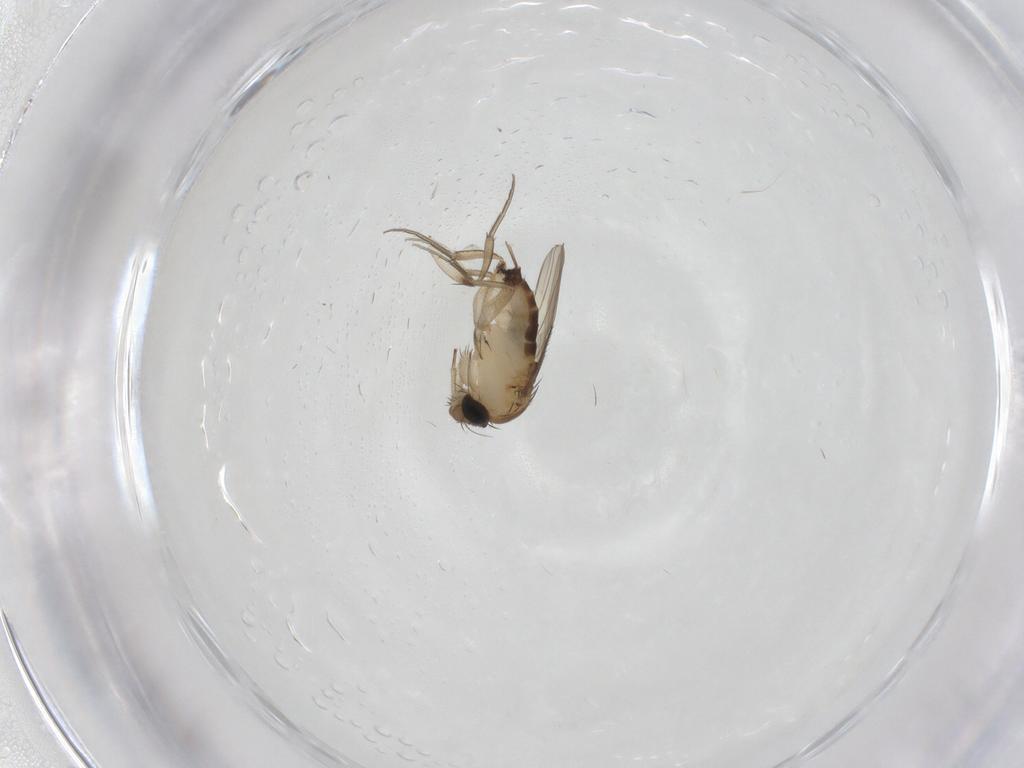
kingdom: Animalia
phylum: Arthropoda
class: Insecta
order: Diptera
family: Phoridae
